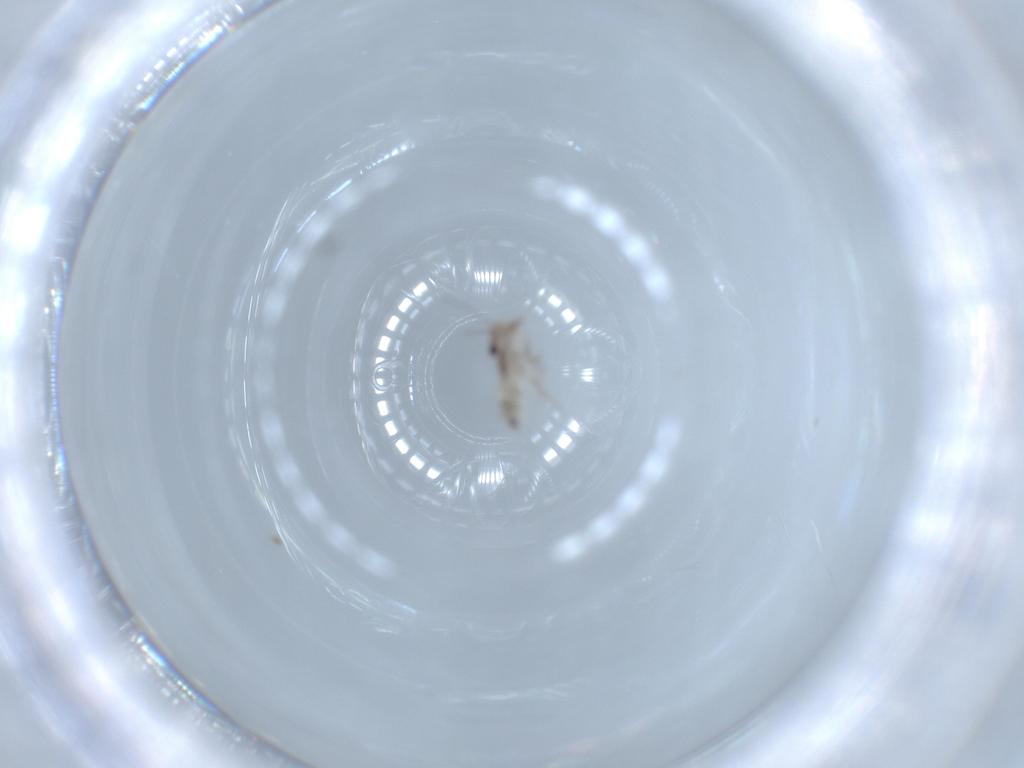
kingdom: Animalia
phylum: Arthropoda
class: Insecta
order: Psocodea
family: Lepidopsocidae
